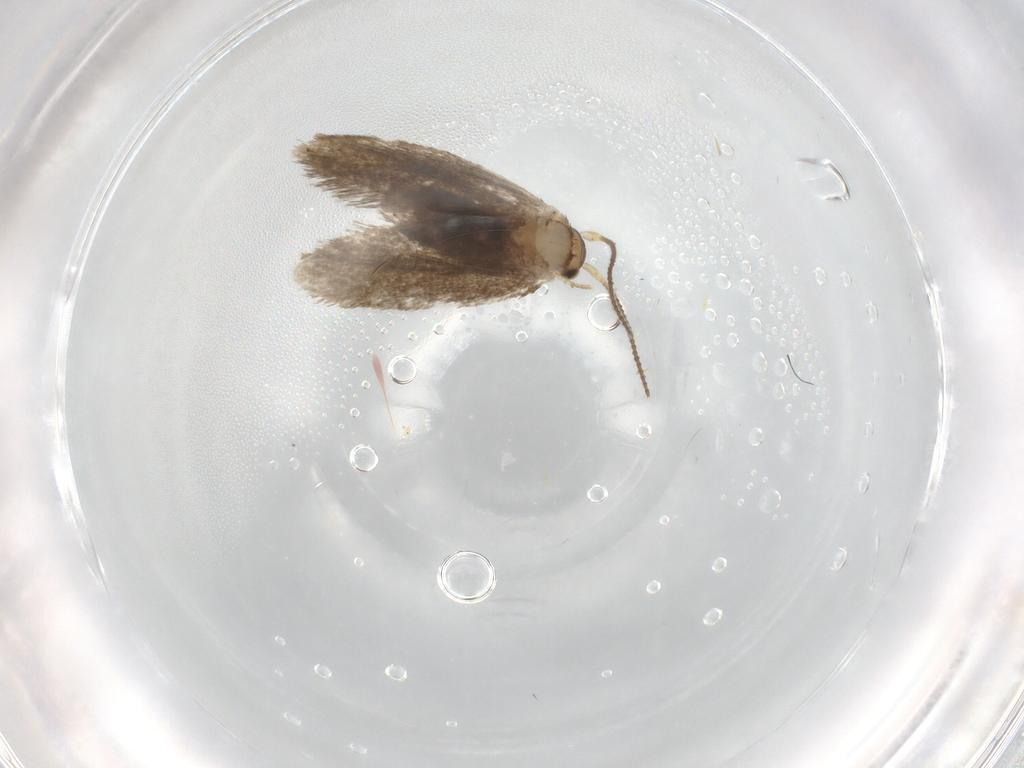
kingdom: Animalia
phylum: Arthropoda
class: Insecta
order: Lepidoptera
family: Dryadaulidae
